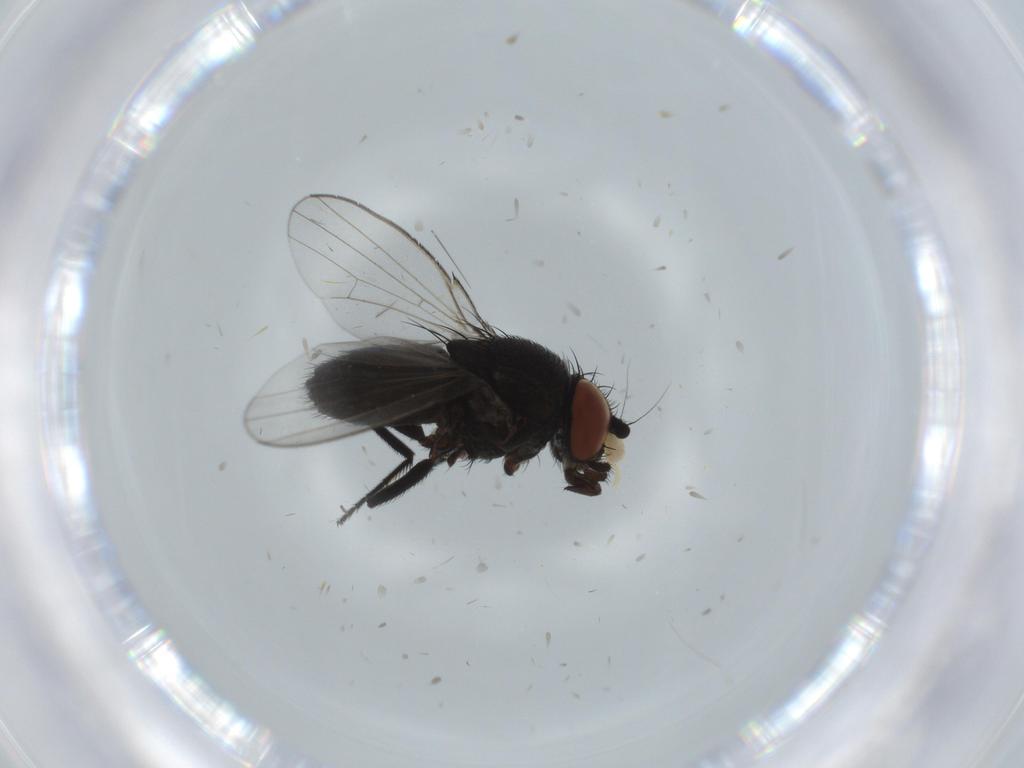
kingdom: Animalia
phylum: Arthropoda
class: Insecta
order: Diptera
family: Milichiidae
